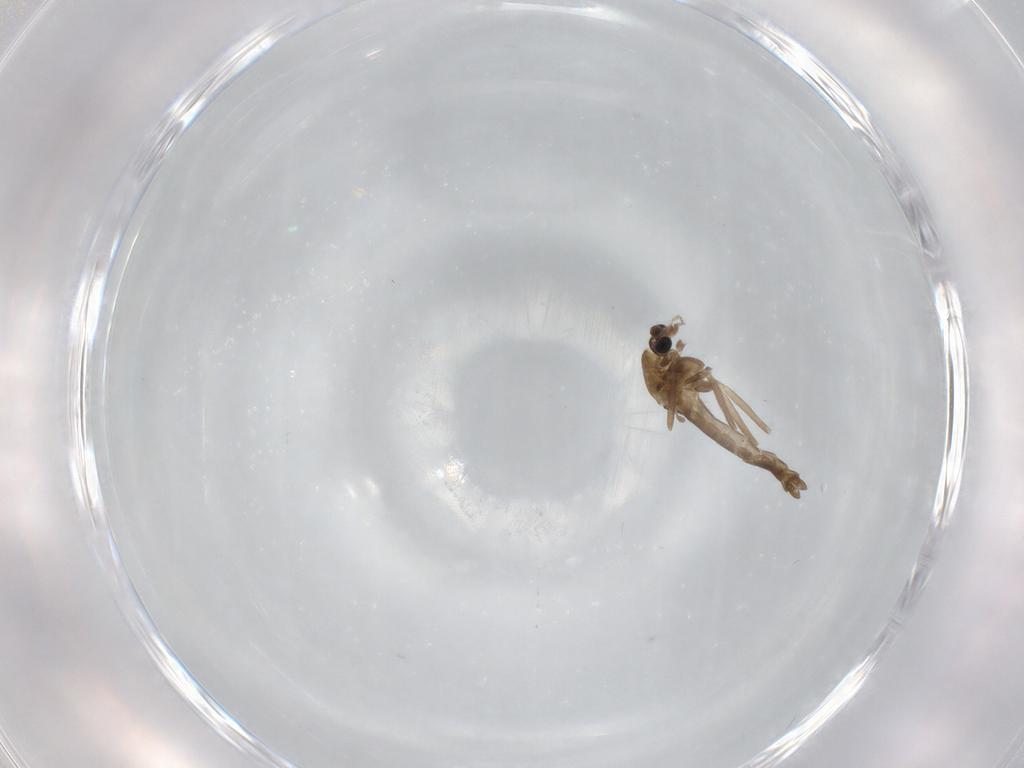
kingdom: Animalia
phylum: Arthropoda
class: Insecta
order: Diptera
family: Chironomidae
